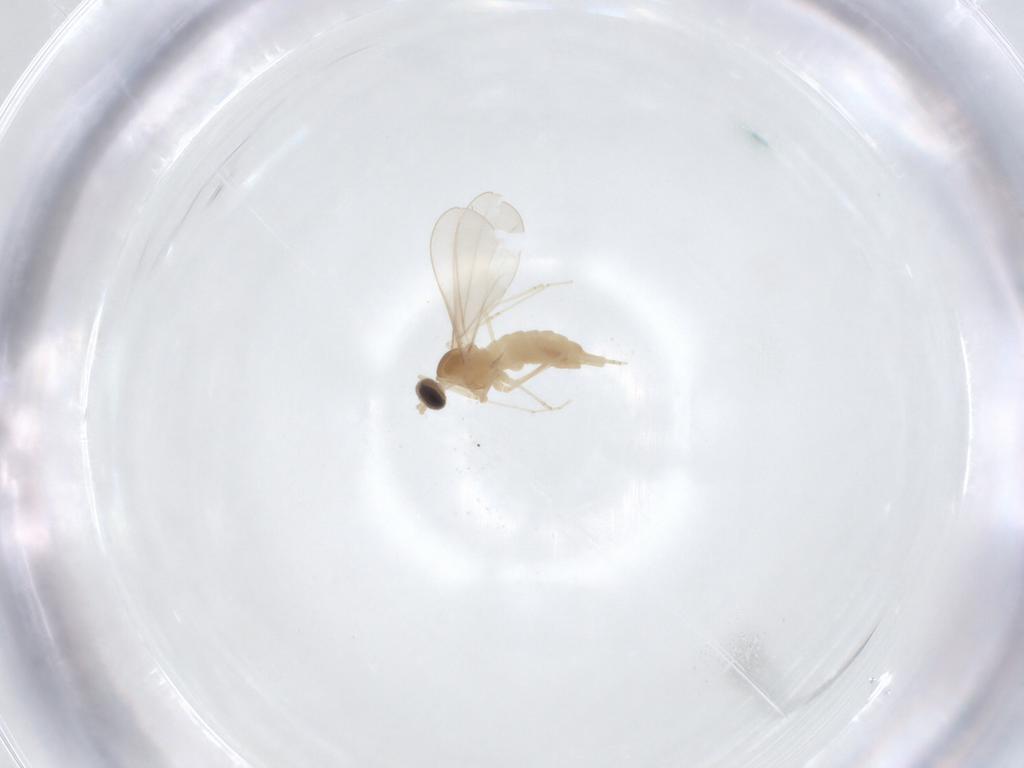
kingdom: Animalia
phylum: Arthropoda
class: Insecta
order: Diptera
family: Cecidomyiidae
